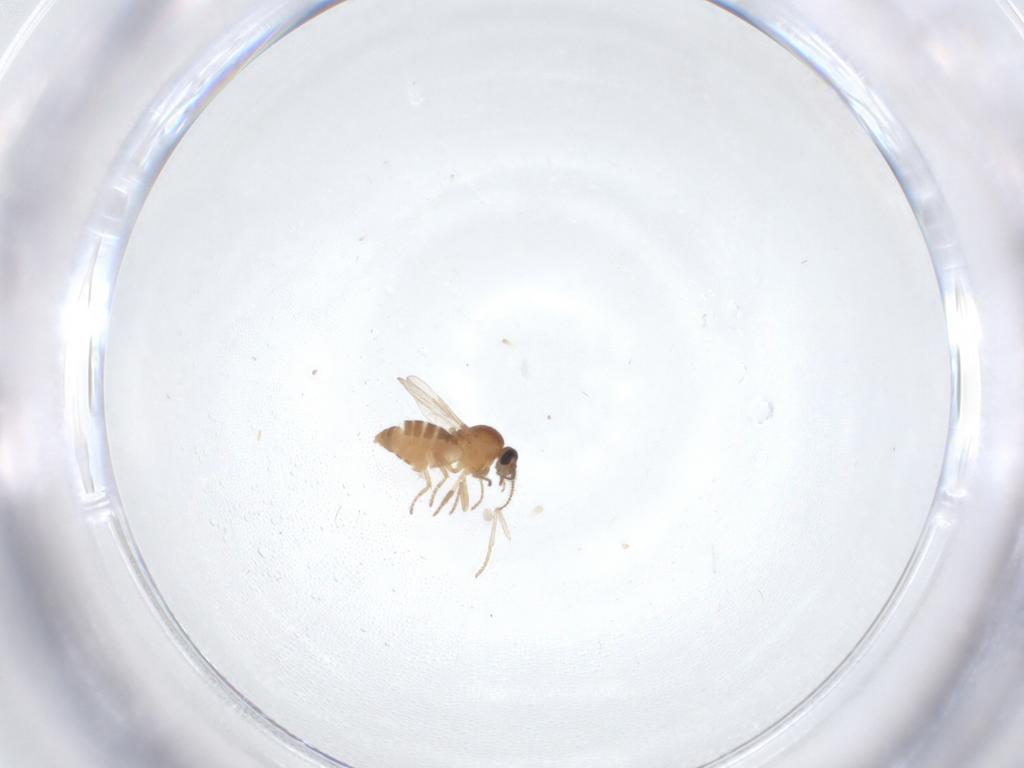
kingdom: Animalia
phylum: Arthropoda
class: Insecta
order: Diptera
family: Ceratopogonidae
